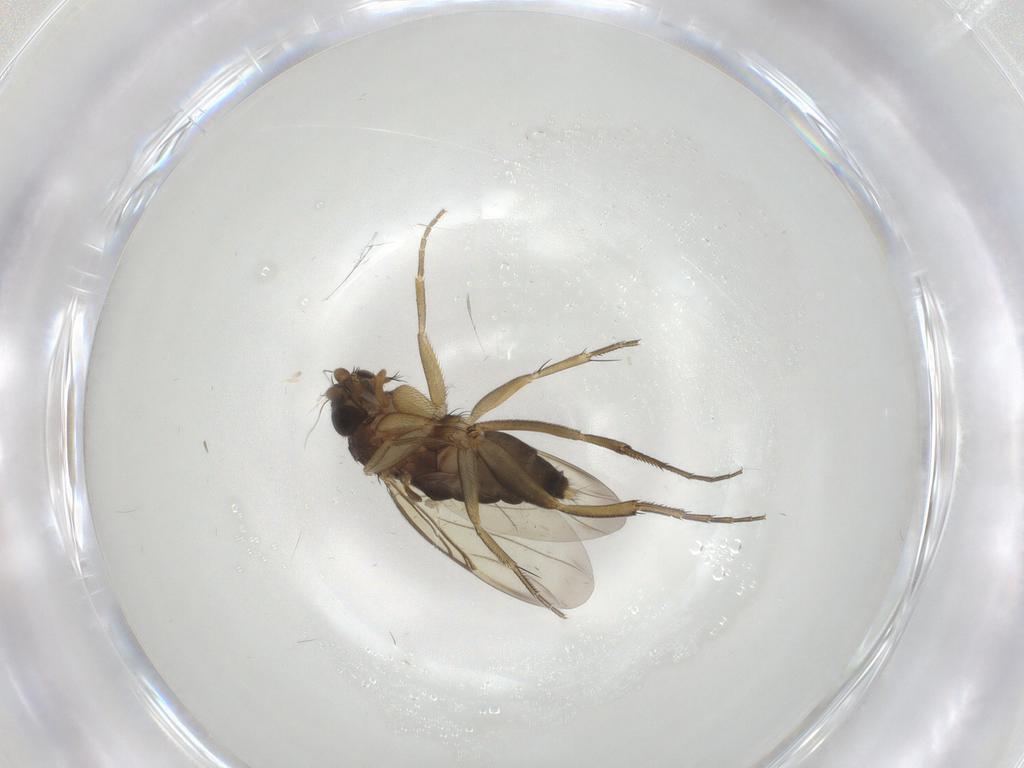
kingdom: Animalia
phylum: Arthropoda
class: Insecta
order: Diptera
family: Phoridae
